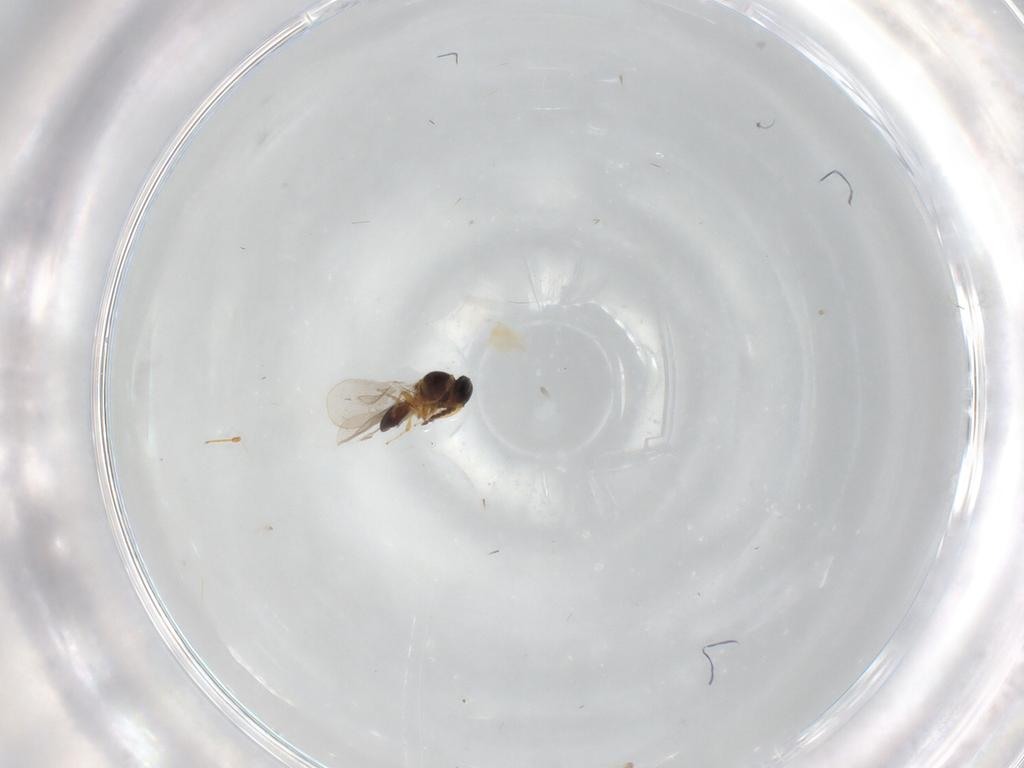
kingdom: Animalia
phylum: Arthropoda
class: Insecta
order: Hymenoptera
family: Platygastridae
